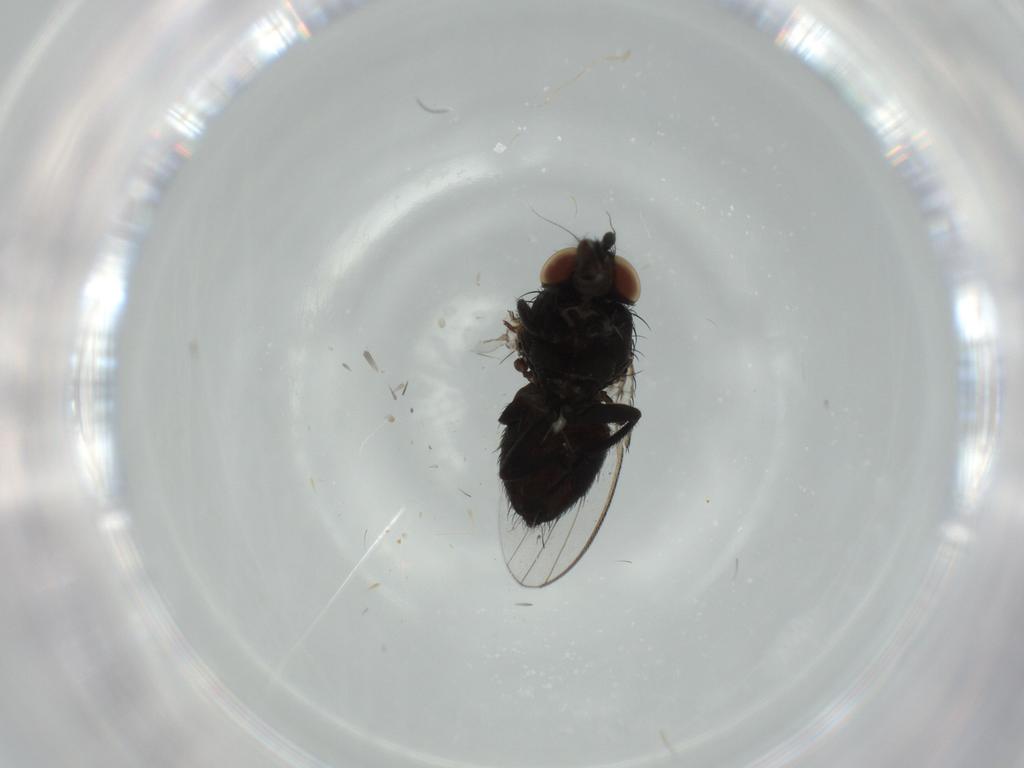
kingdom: Animalia
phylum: Arthropoda
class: Insecta
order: Diptera
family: Milichiidae
